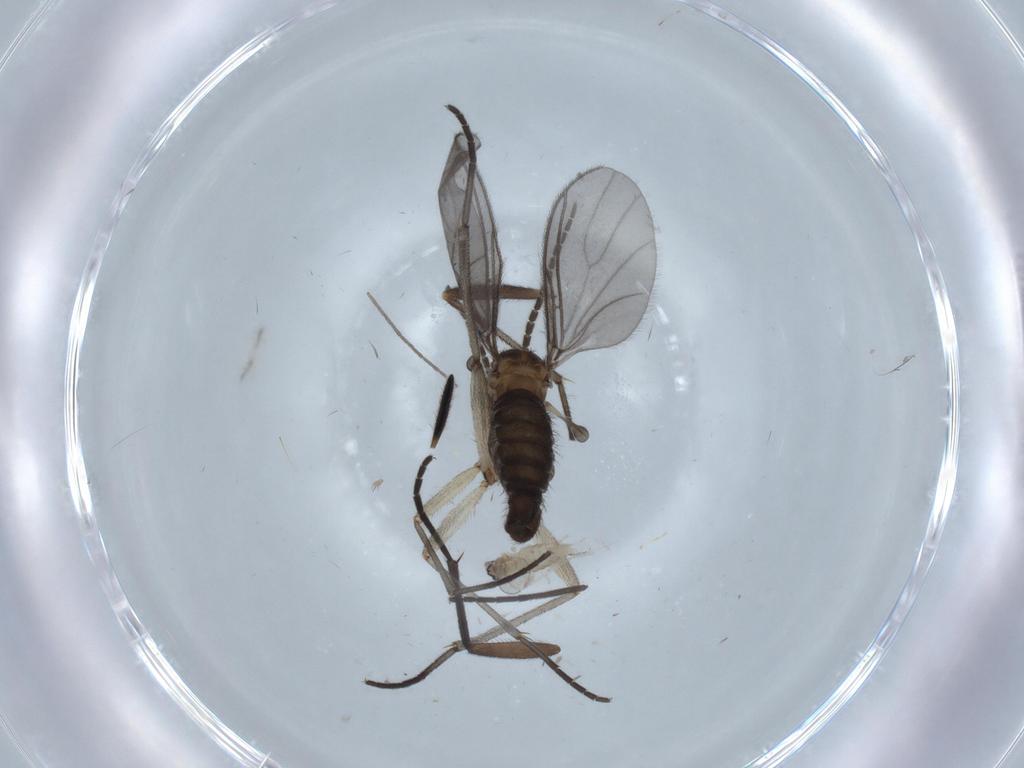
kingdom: Animalia
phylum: Arthropoda
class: Insecta
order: Diptera
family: Sciaridae
